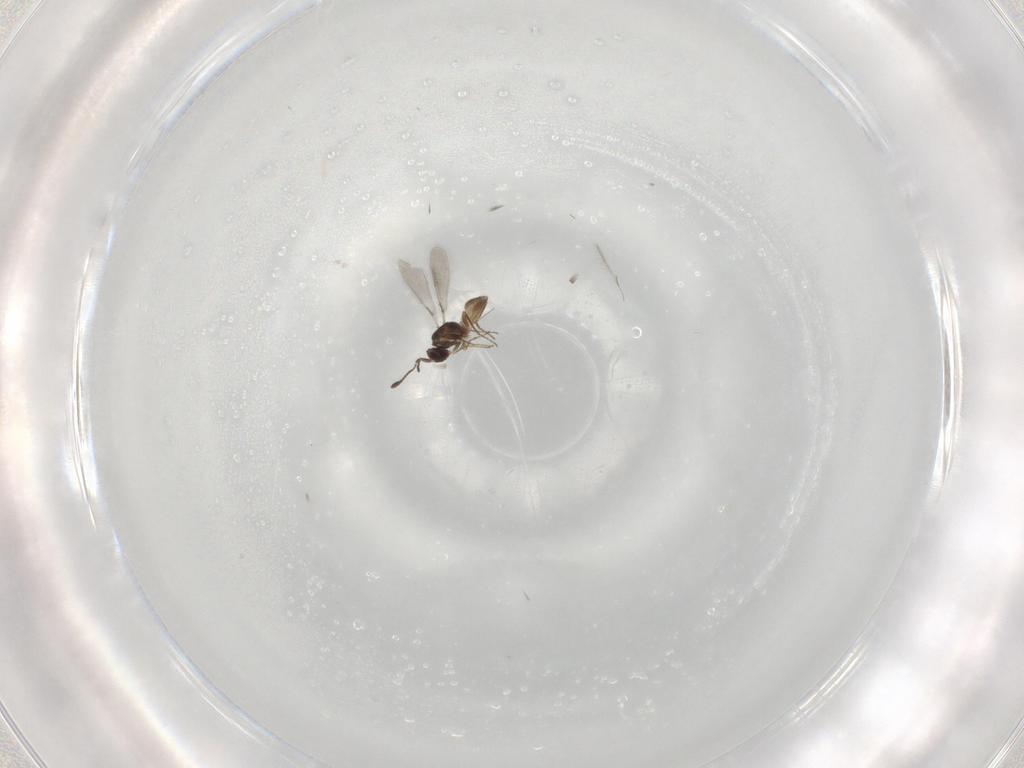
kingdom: Animalia
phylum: Arthropoda
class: Insecta
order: Hymenoptera
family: Mymaridae
